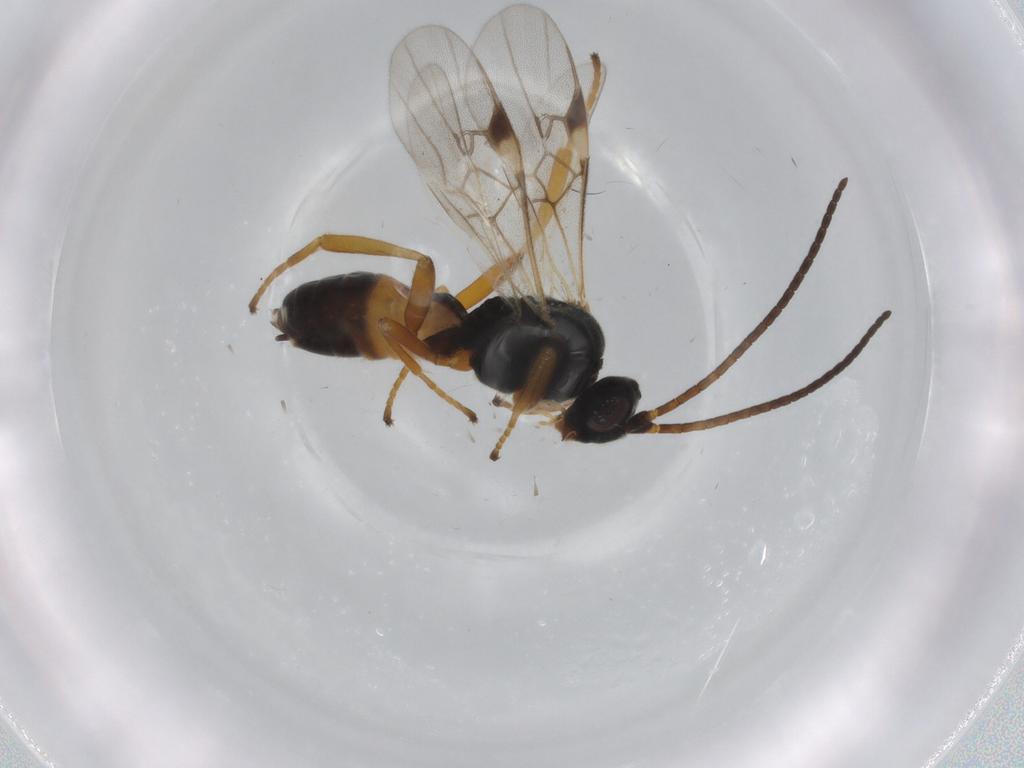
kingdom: Animalia
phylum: Arthropoda
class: Insecta
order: Hymenoptera
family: Braconidae
